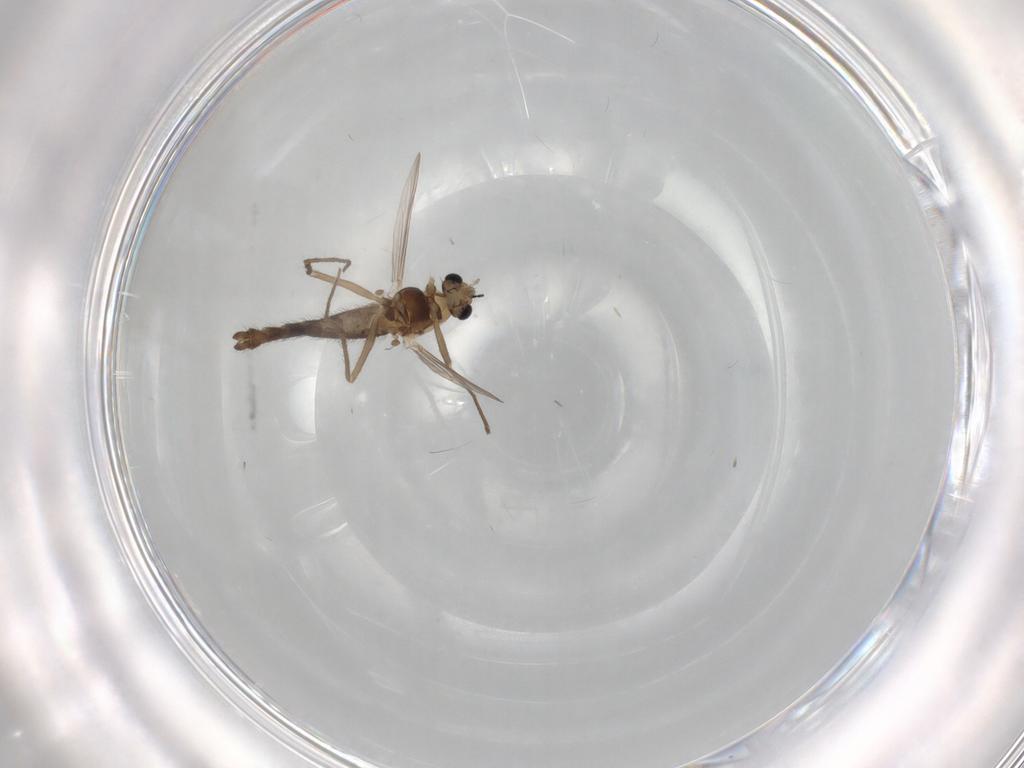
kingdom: Animalia
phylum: Arthropoda
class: Insecta
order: Diptera
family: Chironomidae
